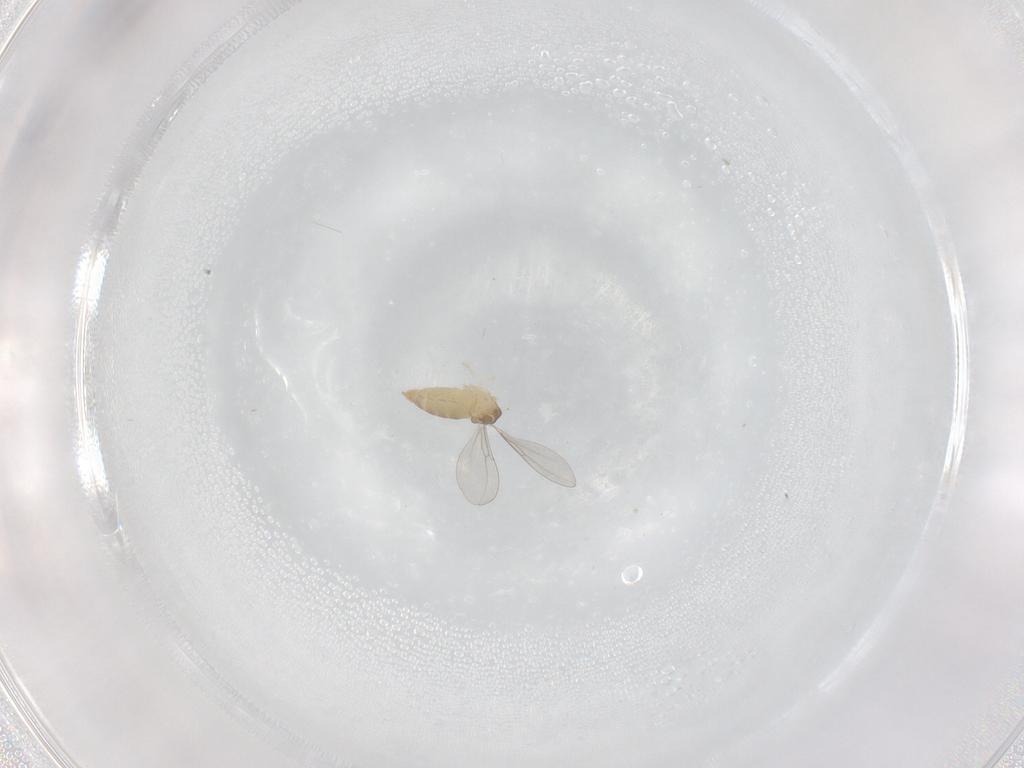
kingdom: Animalia
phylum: Arthropoda
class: Insecta
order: Diptera
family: Cecidomyiidae
